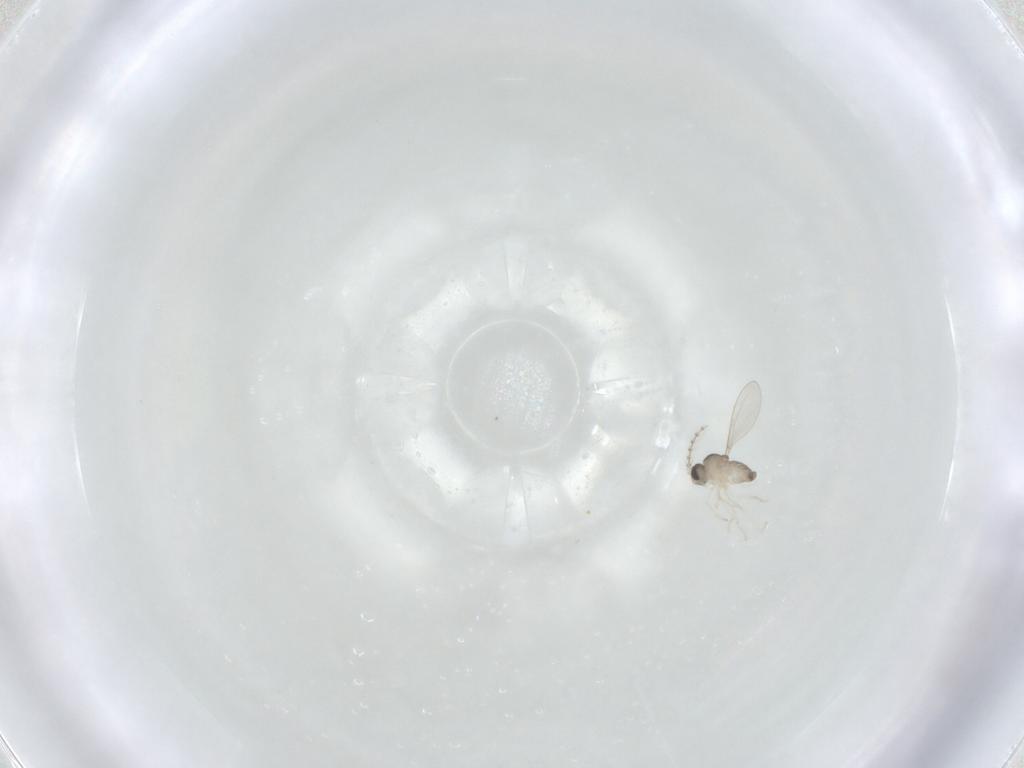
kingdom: Animalia
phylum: Arthropoda
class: Insecta
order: Diptera
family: Cecidomyiidae
